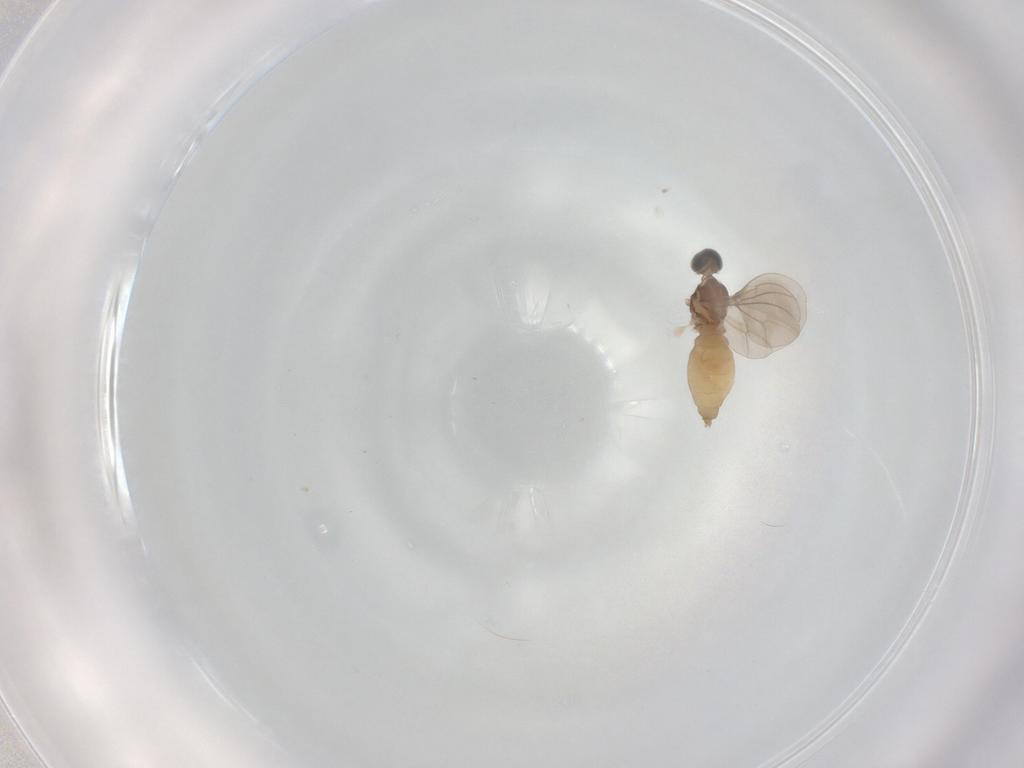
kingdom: Animalia
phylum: Arthropoda
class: Insecta
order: Diptera
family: Cecidomyiidae
